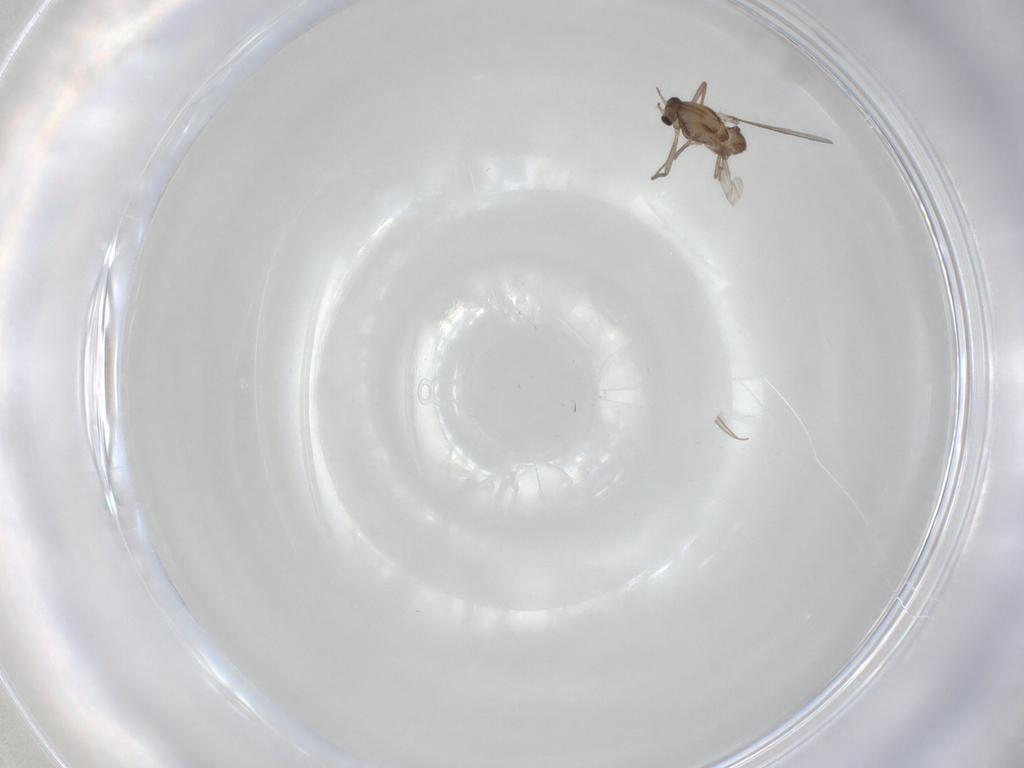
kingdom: Animalia
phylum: Arthropoda
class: Insecta
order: Diptera
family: Chironomidae
